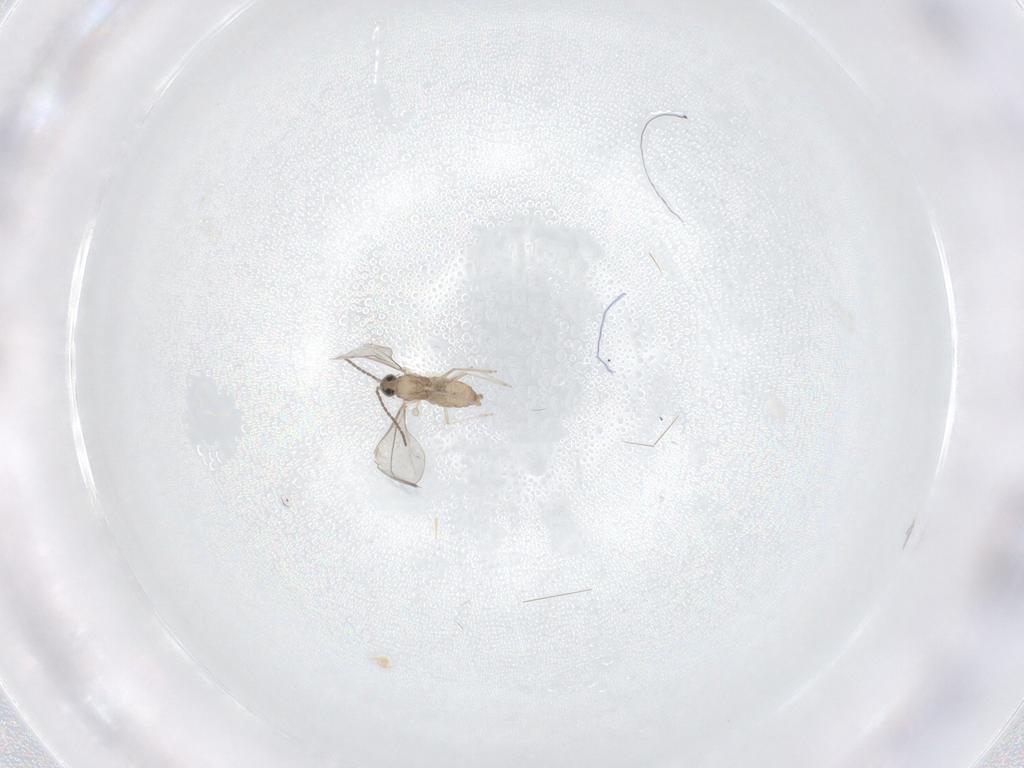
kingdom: Animalia
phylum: Arthropoda
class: Insecta
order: Diptera
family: Cecidomyiidae
